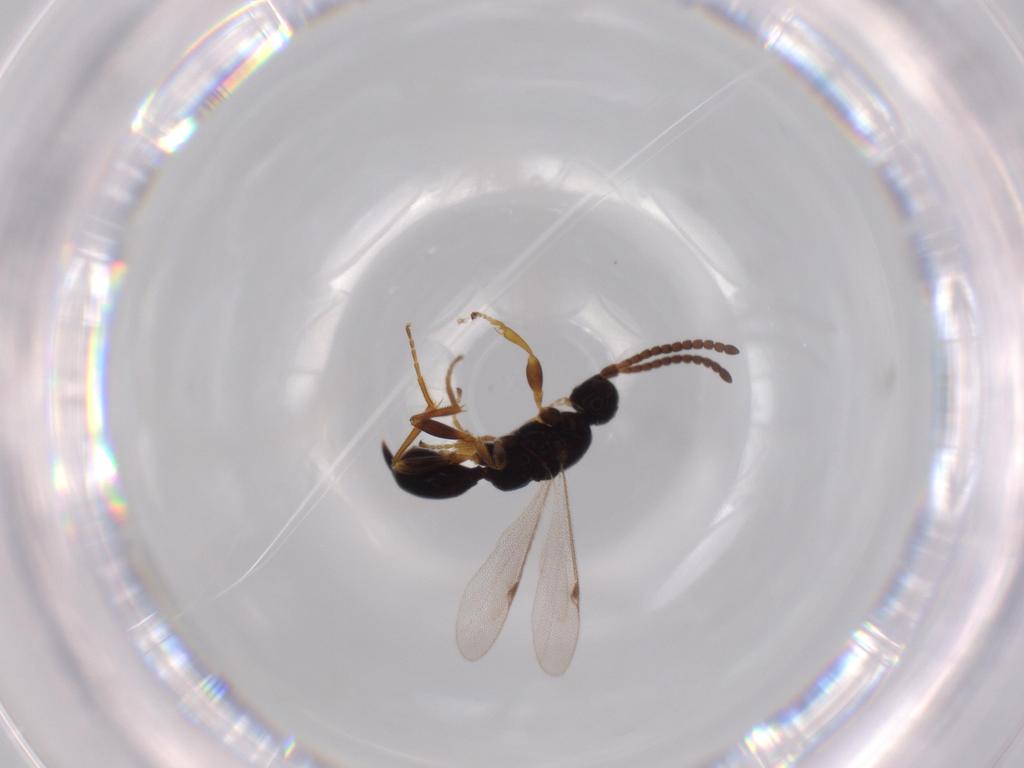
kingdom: Animalia
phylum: Arthropoda
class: Insecta
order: Hymenoptera
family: Proctotrupidae
